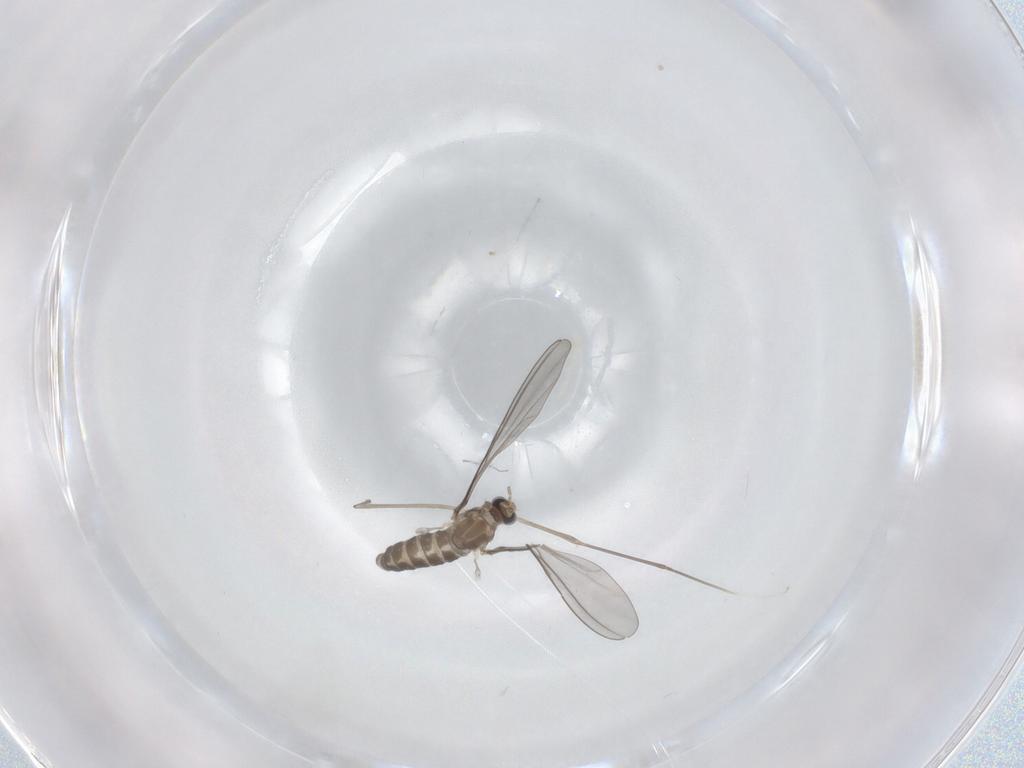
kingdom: Animalia
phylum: Arthropoda
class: Insecta
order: Diptera
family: Cecidomyiidae
